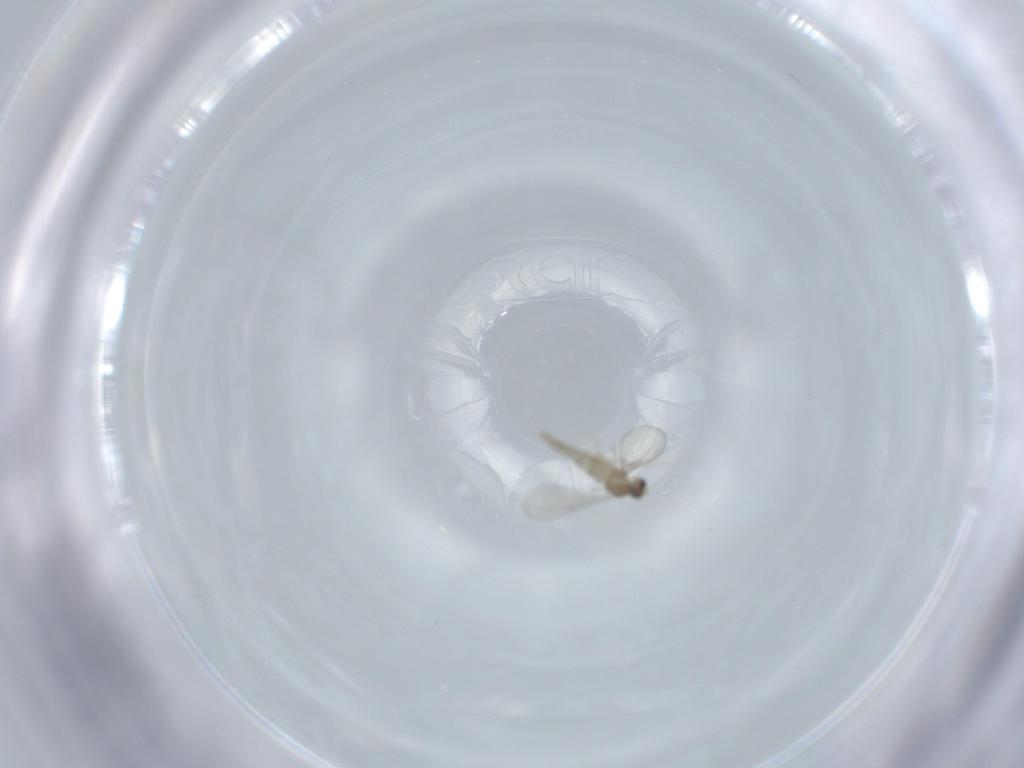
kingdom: Animalia
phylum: Arthropoda
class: Insecta
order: Diptera
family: Cecidomyiidae
